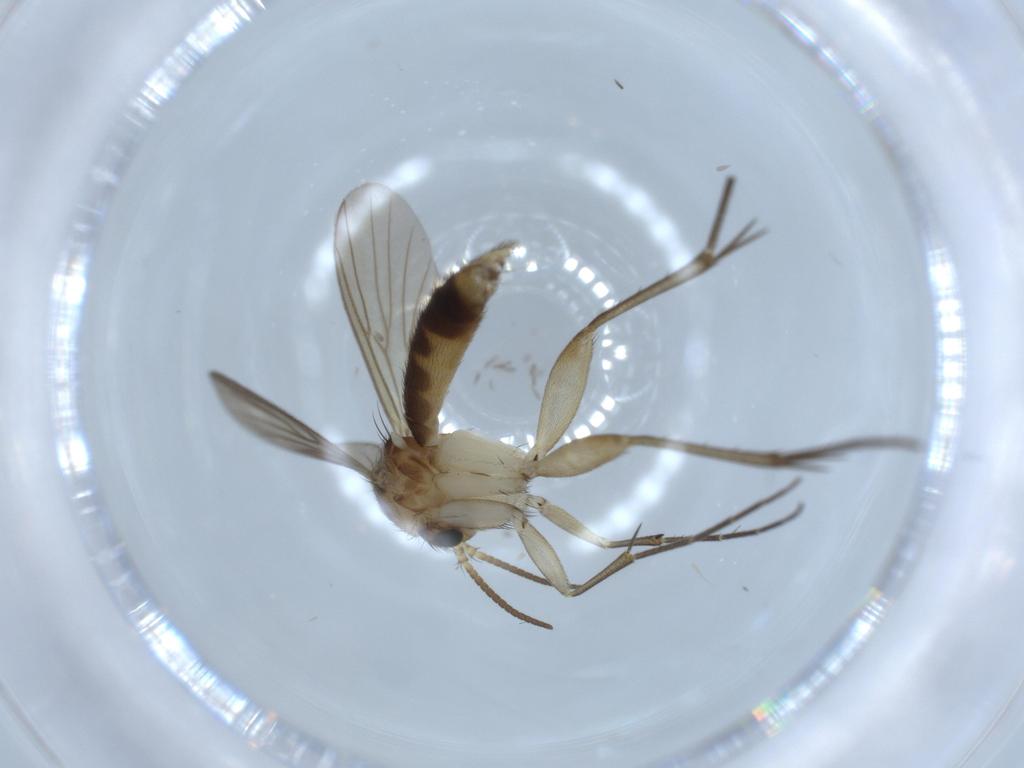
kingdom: Animalia
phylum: Arthropoda
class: Insecta
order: Diptera
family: Mycetophilidae
